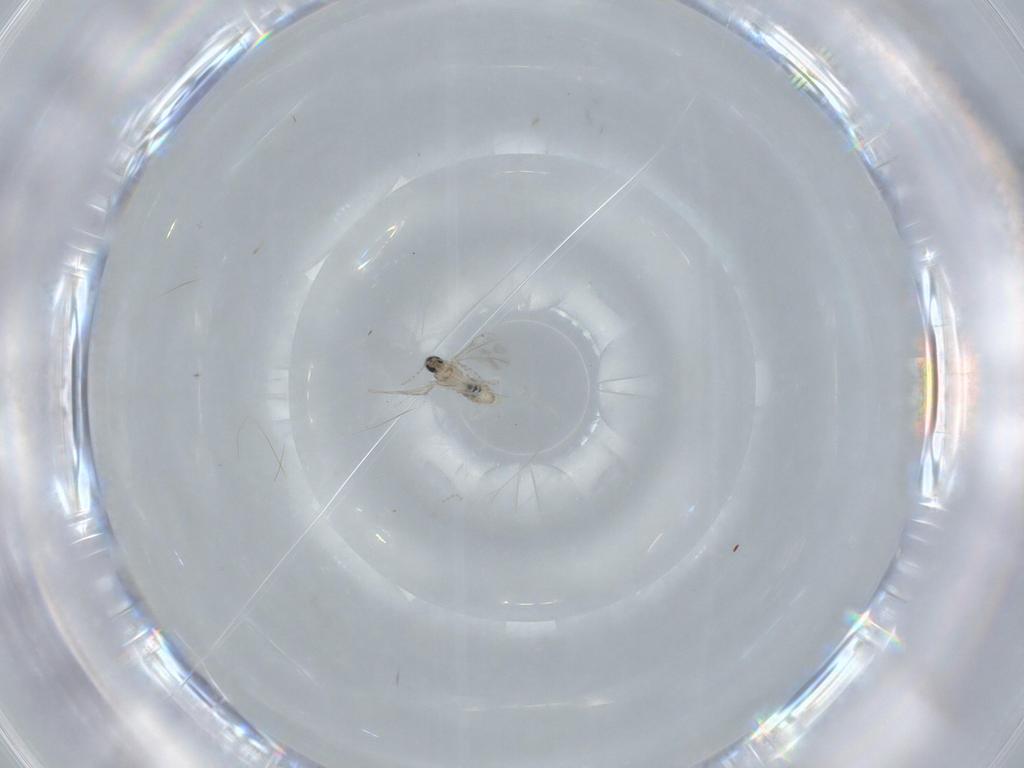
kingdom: Animalia
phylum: Arthropoda
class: Insecta
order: Diptera
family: Cecidomyiidae
